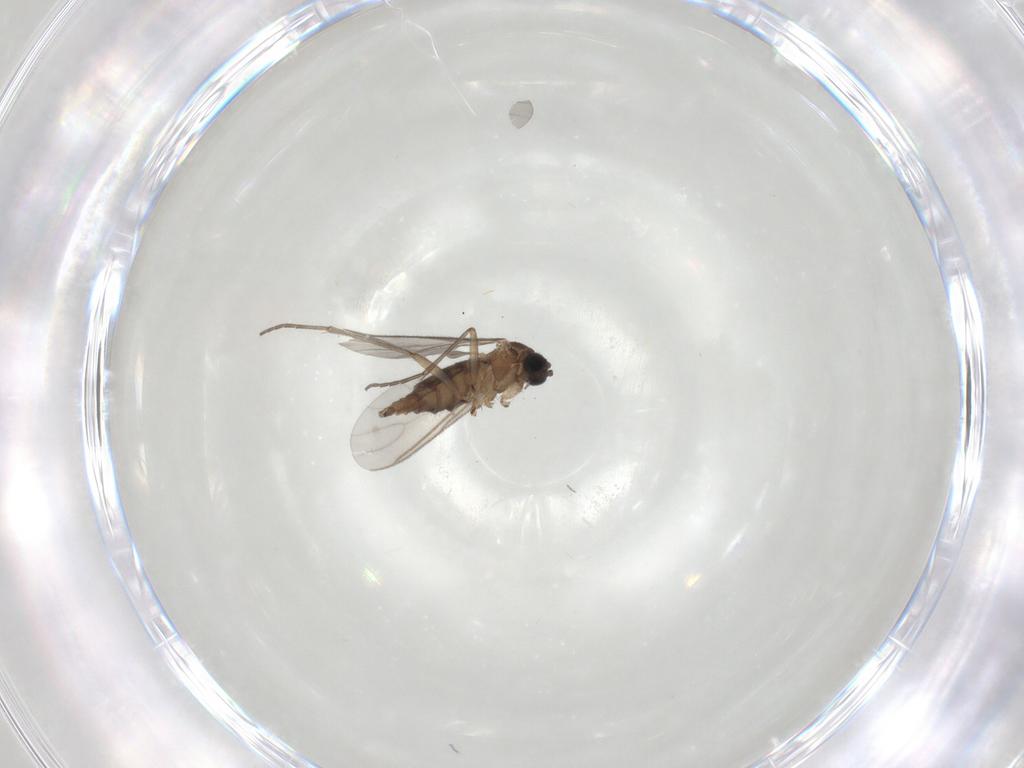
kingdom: Animalia
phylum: Arthropoda
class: Insecta
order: Diptera
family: Sciaridae
